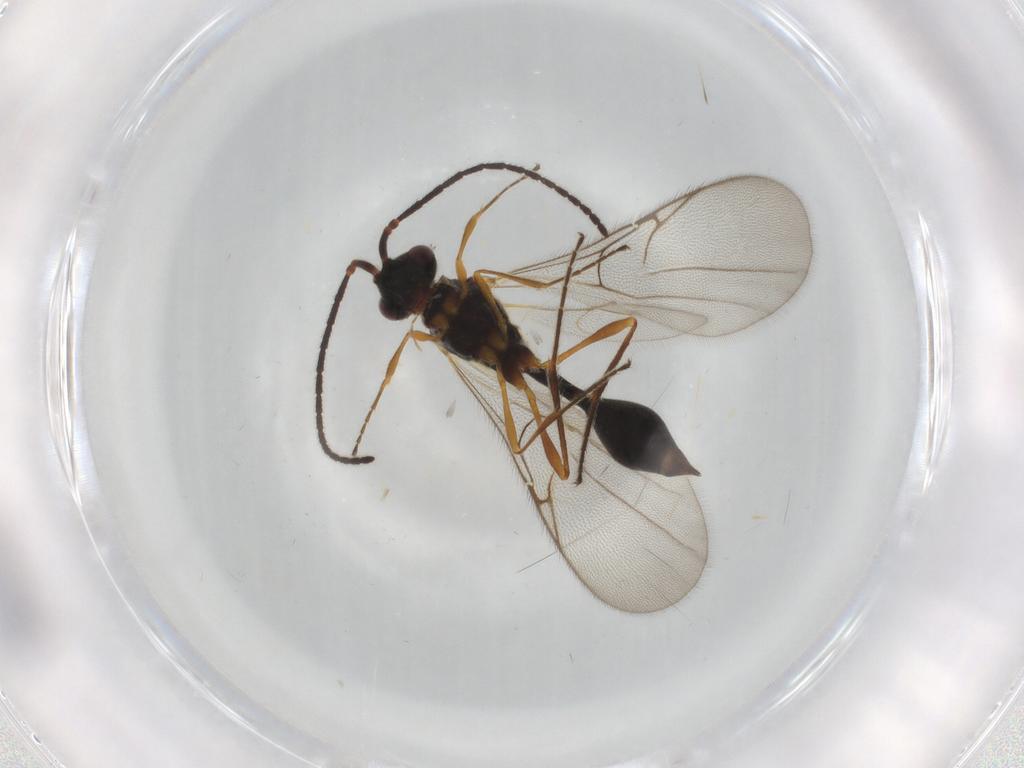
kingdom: Animalia
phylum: Arthropoda
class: Insecta
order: Hymenoptera
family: Diapriidae
